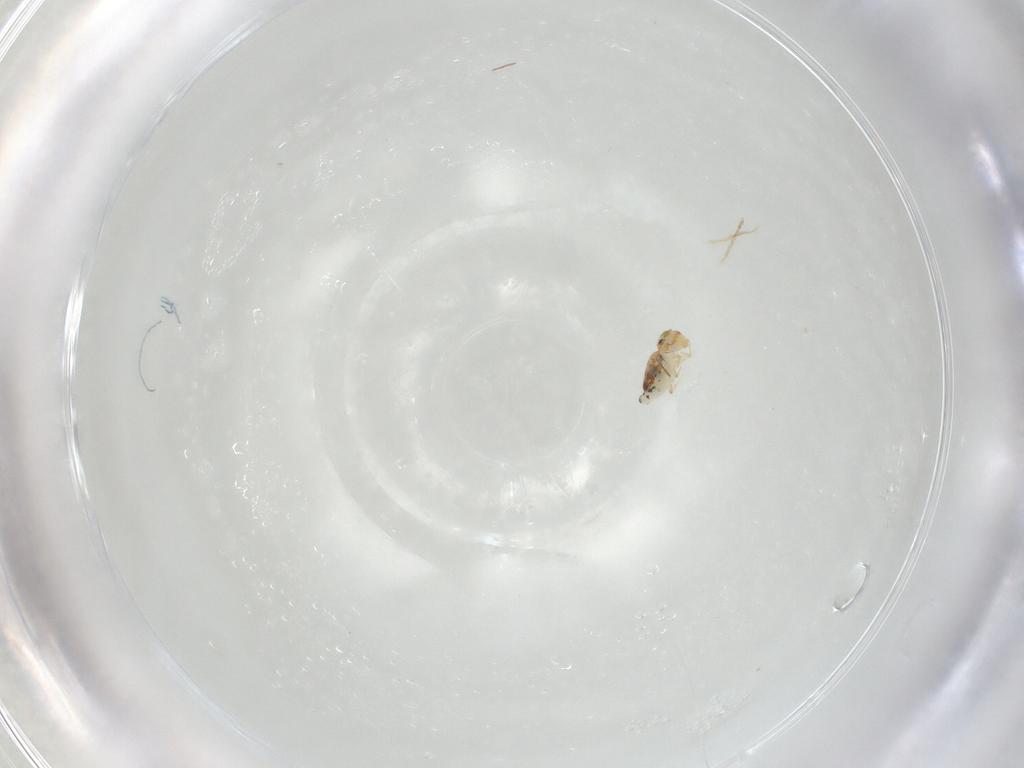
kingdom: Animalia
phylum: Arthropoda
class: Collembola
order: Symphypleona
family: Bourletiellidae
